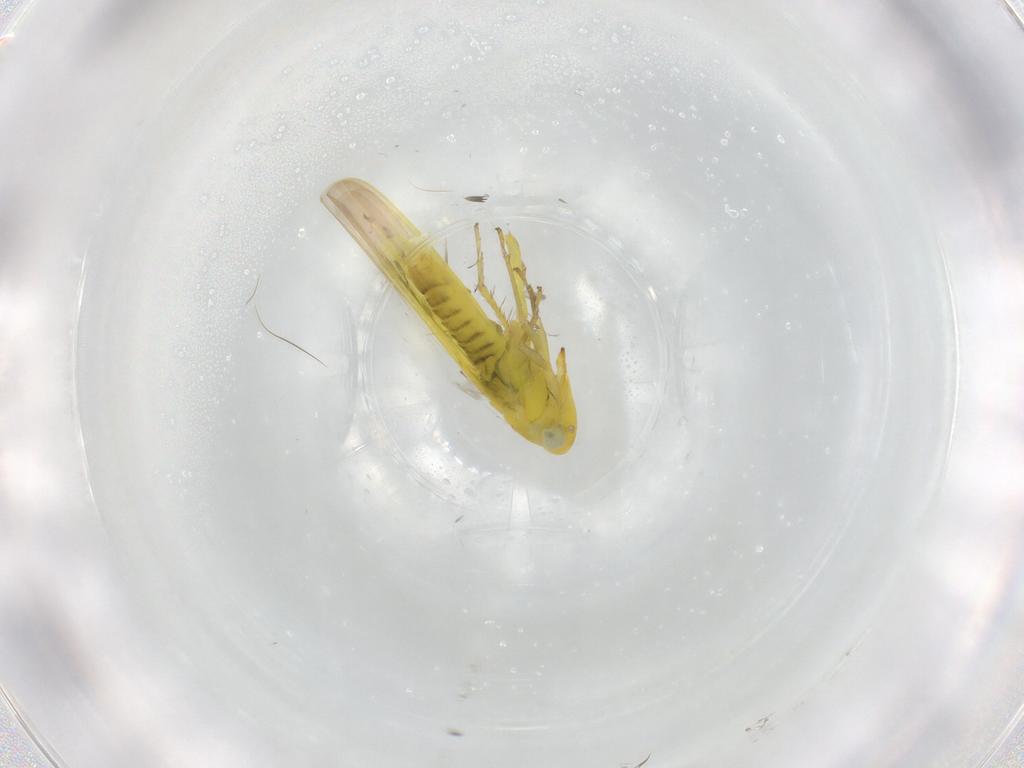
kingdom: Animalia
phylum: Arthropoda
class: Insecta
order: Hemiptera
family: Cicadellidae
